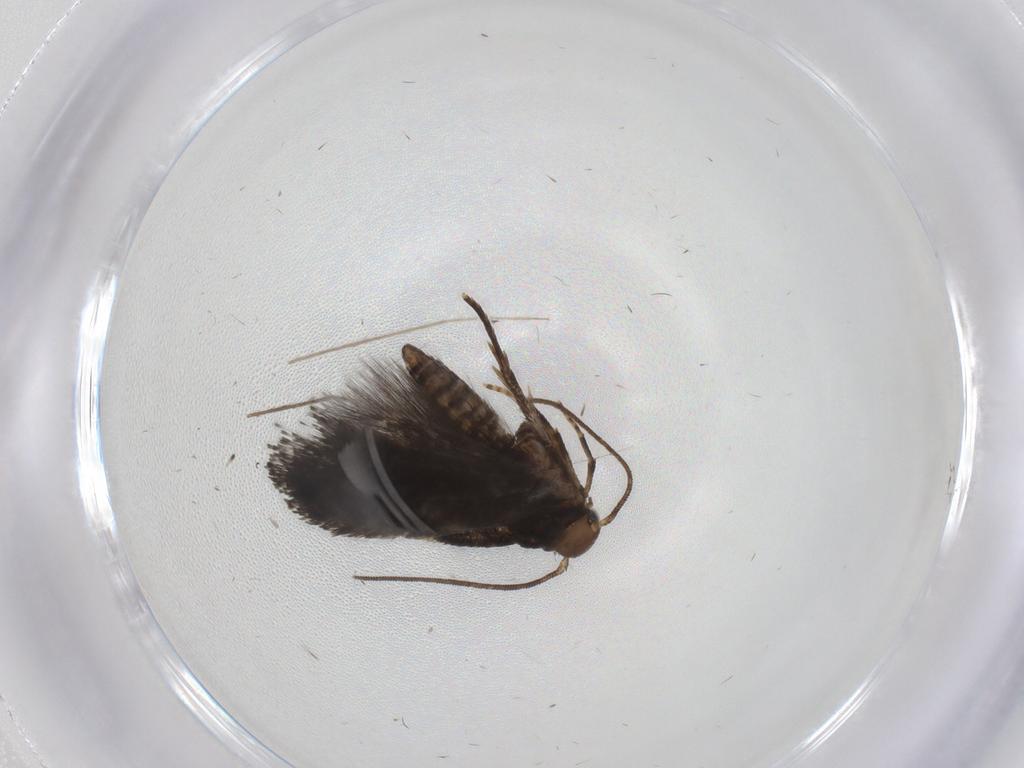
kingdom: Animalia
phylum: Arthropoda
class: Insecta
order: Lepidoptera
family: Pieridae
